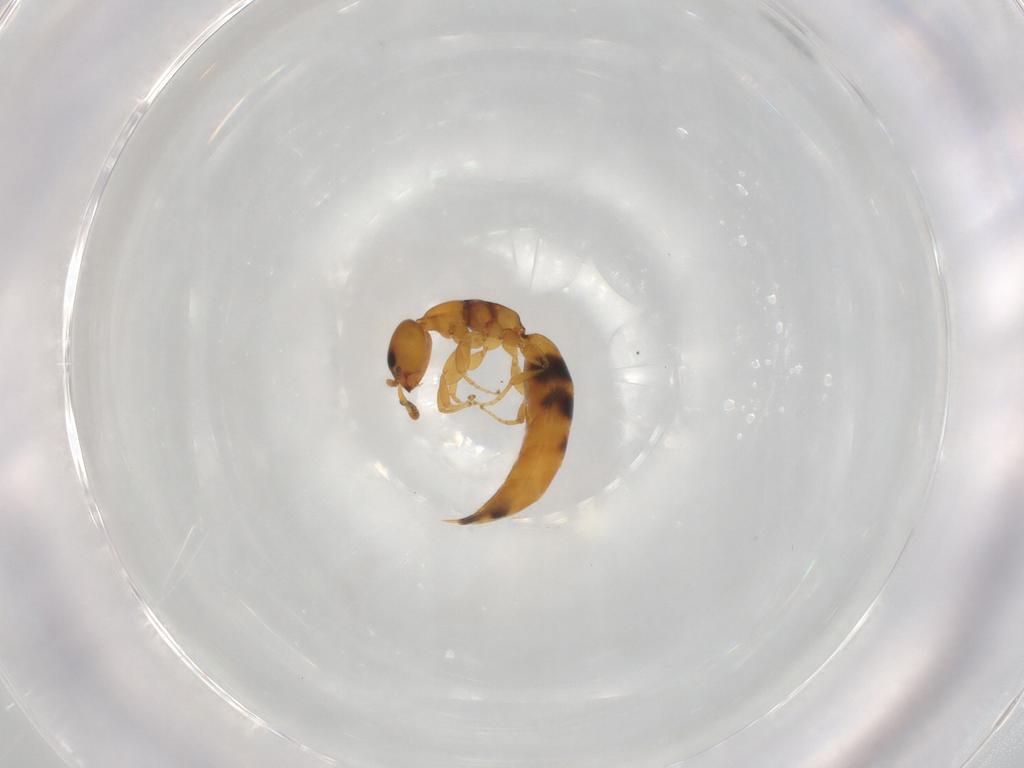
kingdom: Animalia
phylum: Arthropoda
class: Insecta
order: Hymenoptera
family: Bethylidae
